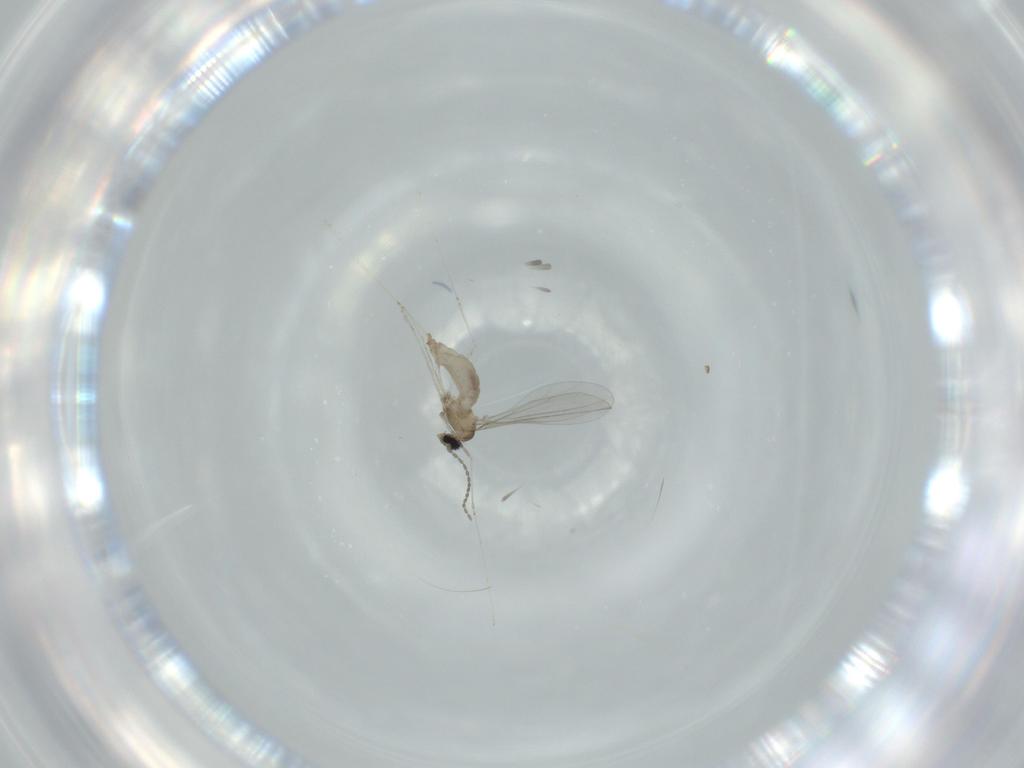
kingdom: Animalia
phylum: Arthropoda
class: Insecta
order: Diptera
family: Cecidomyiidae
